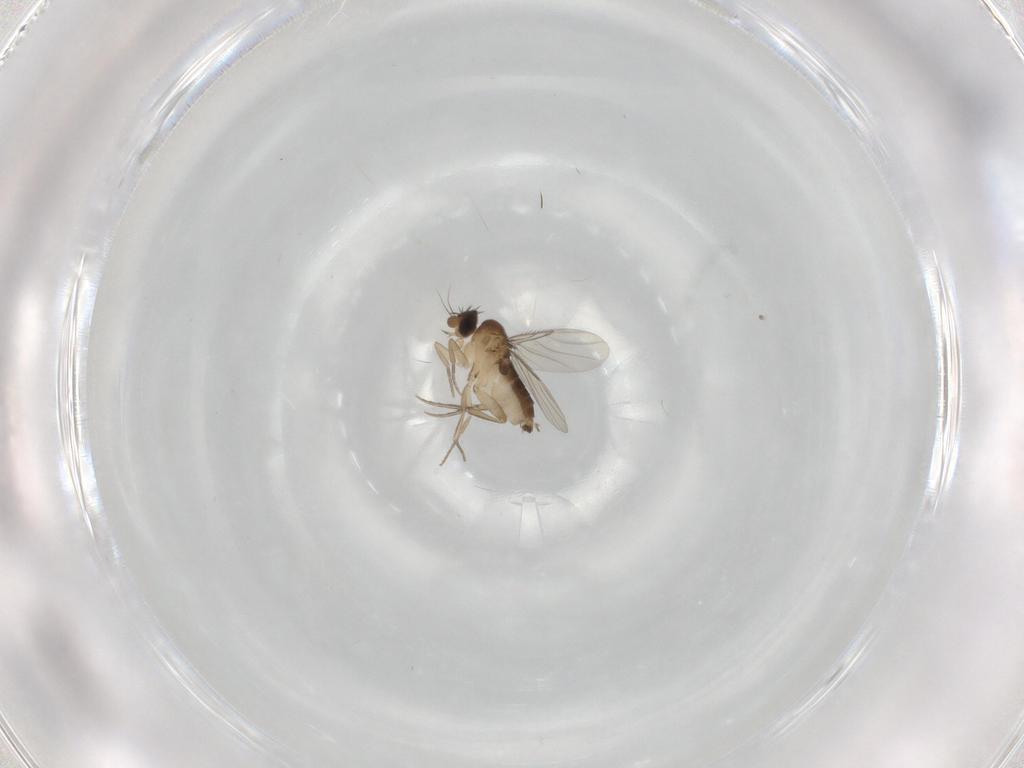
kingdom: Animalia
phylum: Arthropoda
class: Insecta
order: Diptera
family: Phoridae
